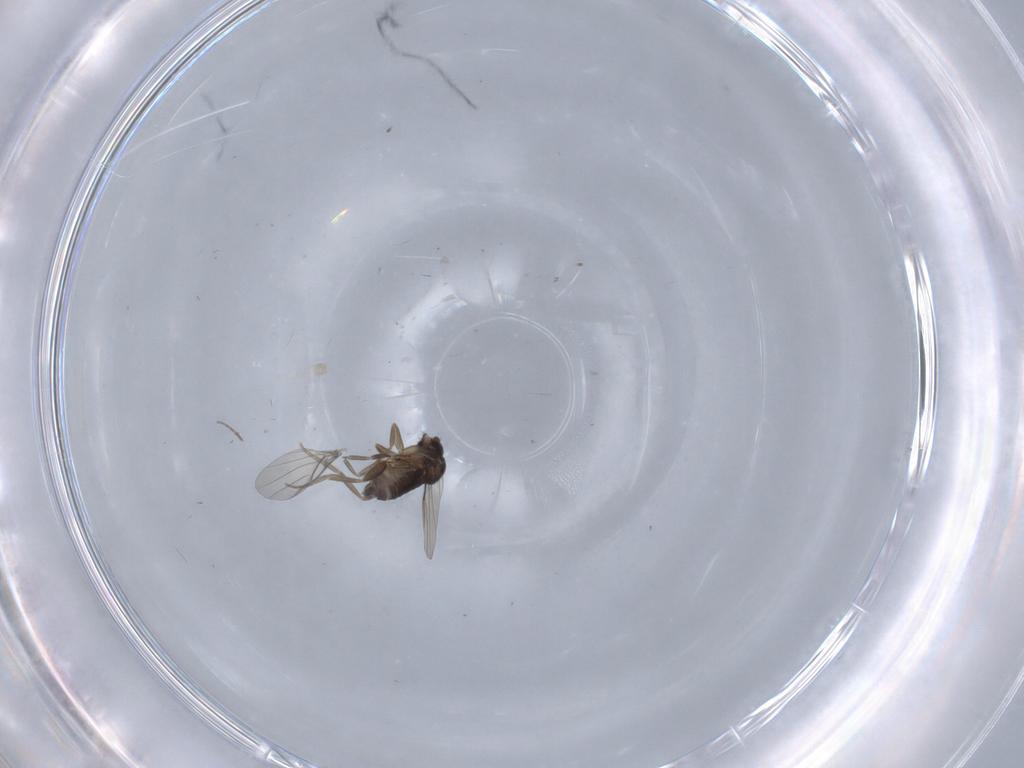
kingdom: Animalia
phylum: Arthropoda
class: Insecta
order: Diptera
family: Phoridae
